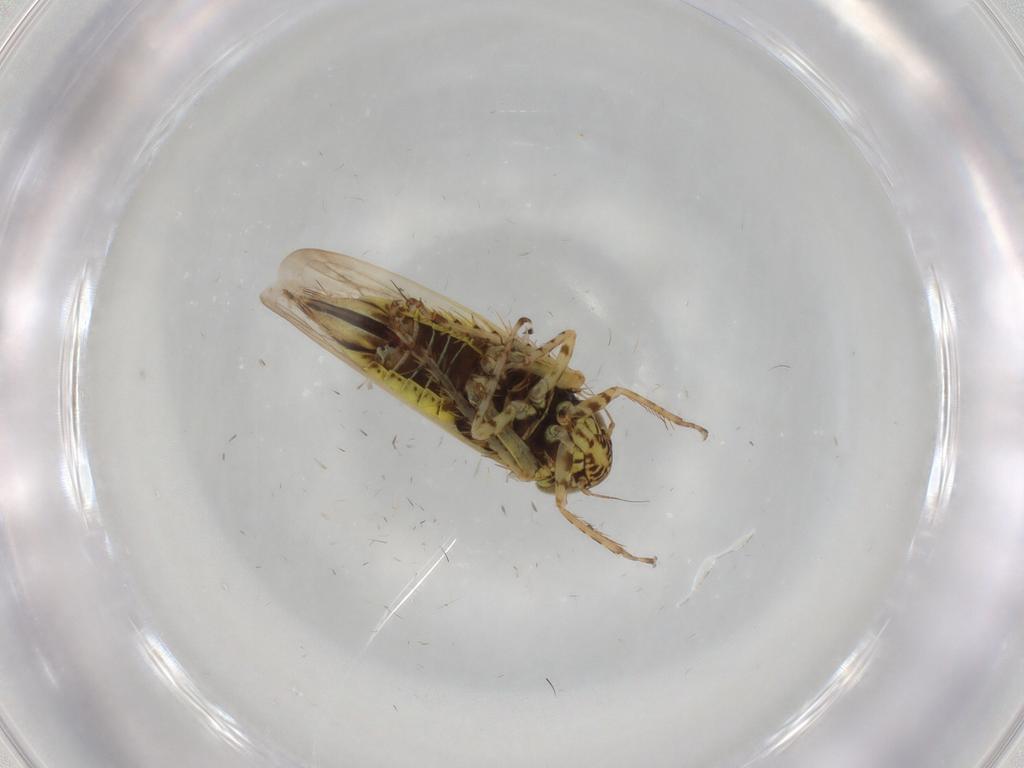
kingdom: Animalia
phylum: Arthropoda
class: Insecta
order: Hemiptera
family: Cicadellidae
